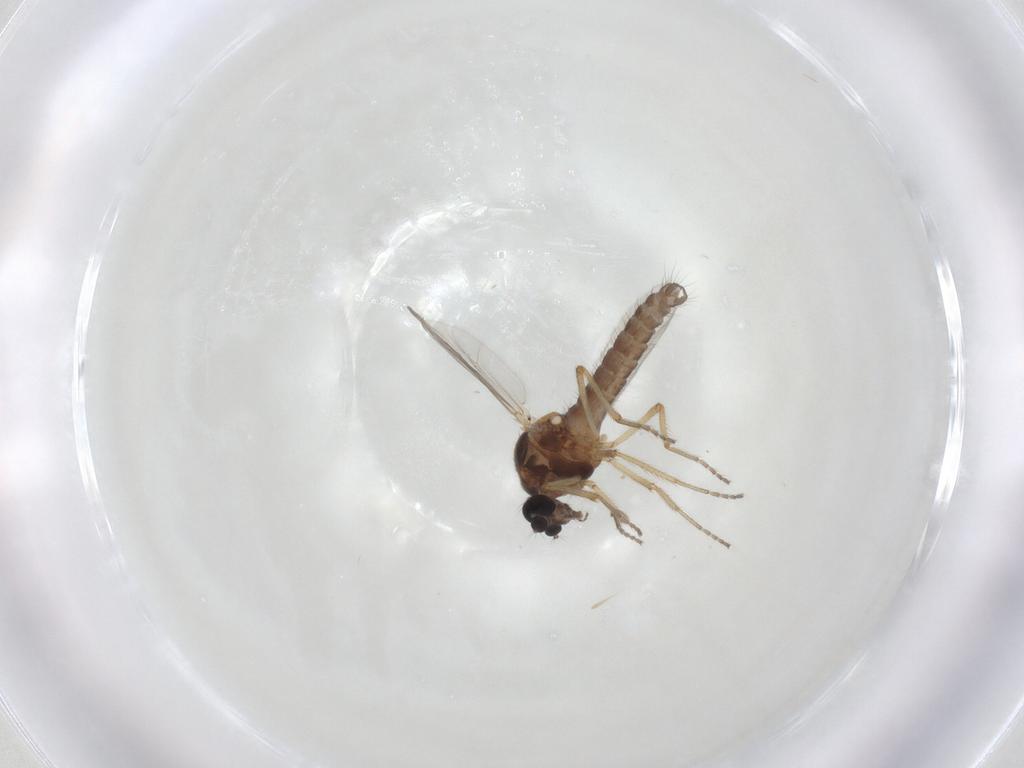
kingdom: Animalia
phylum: Arthropoda
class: Insecta
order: Diptera
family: Ceratopogonidae
